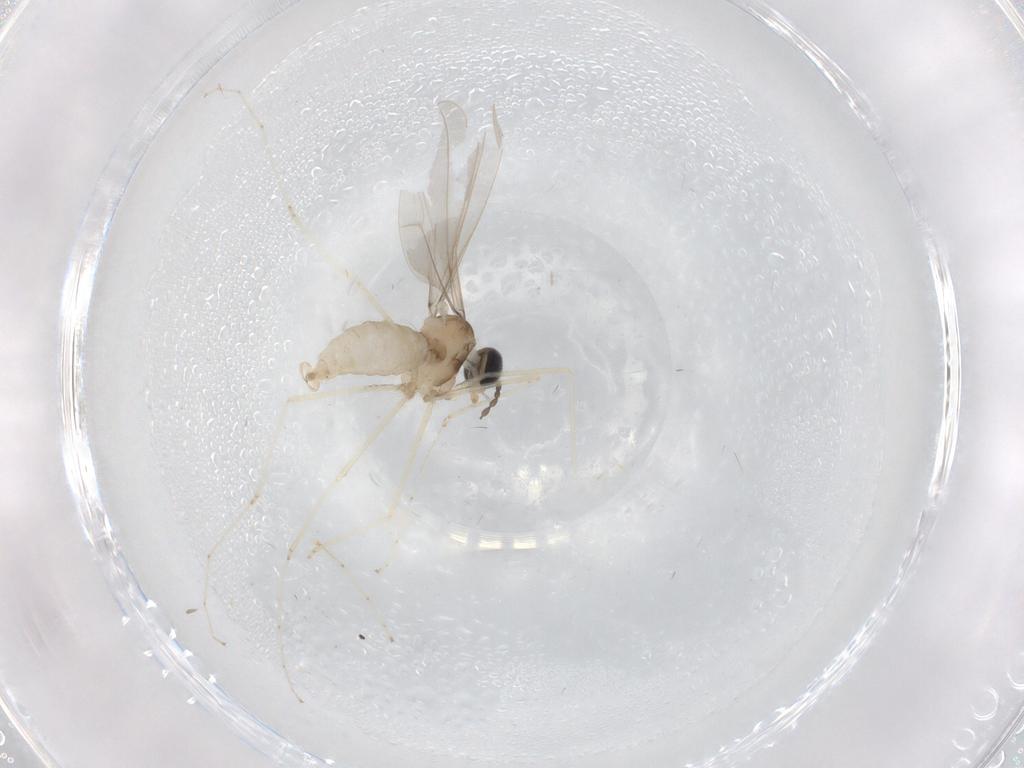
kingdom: Animalia
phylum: Arthropoda
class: Insecta
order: Diptera
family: Cecidomyiidae
